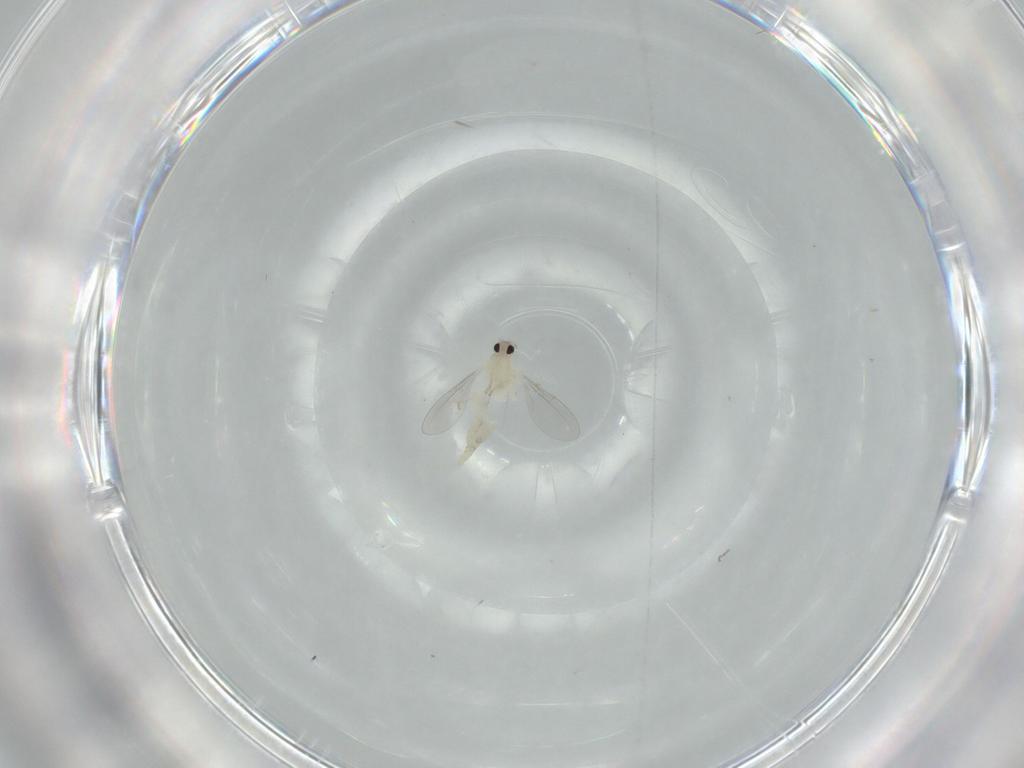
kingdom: Animalia
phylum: Arthropoda
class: Insecta
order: Diptera
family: Cecidomyiidae
